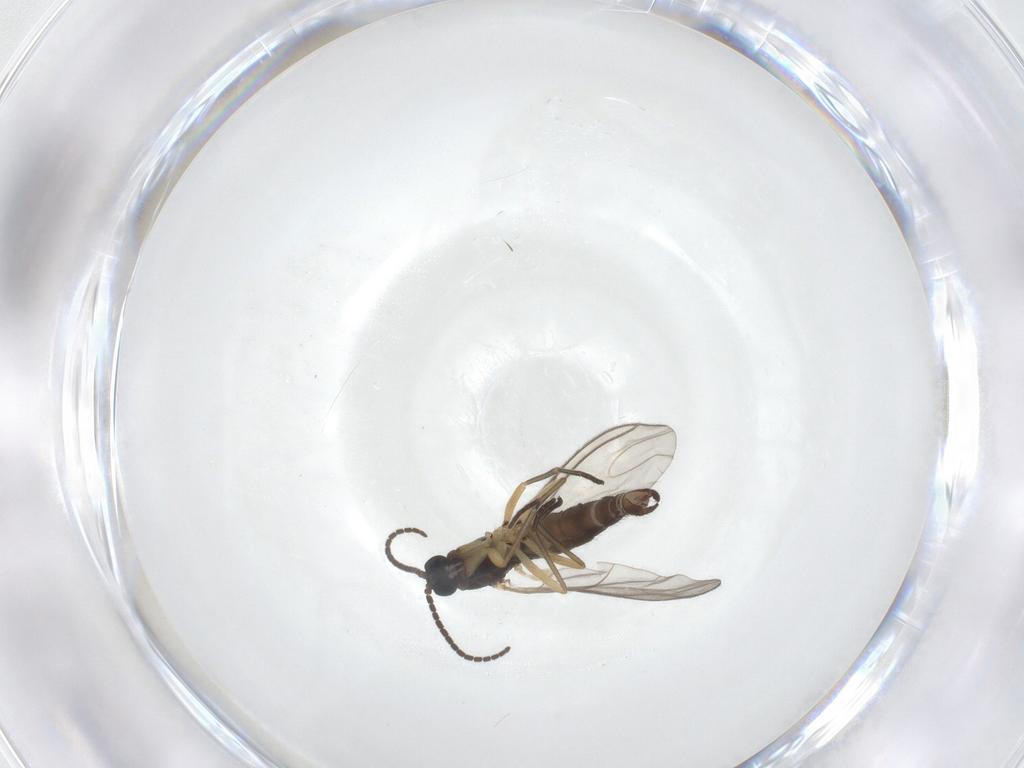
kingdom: Animalia
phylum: Arthropoda
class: Insecta
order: Diptera
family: Sciaridae
